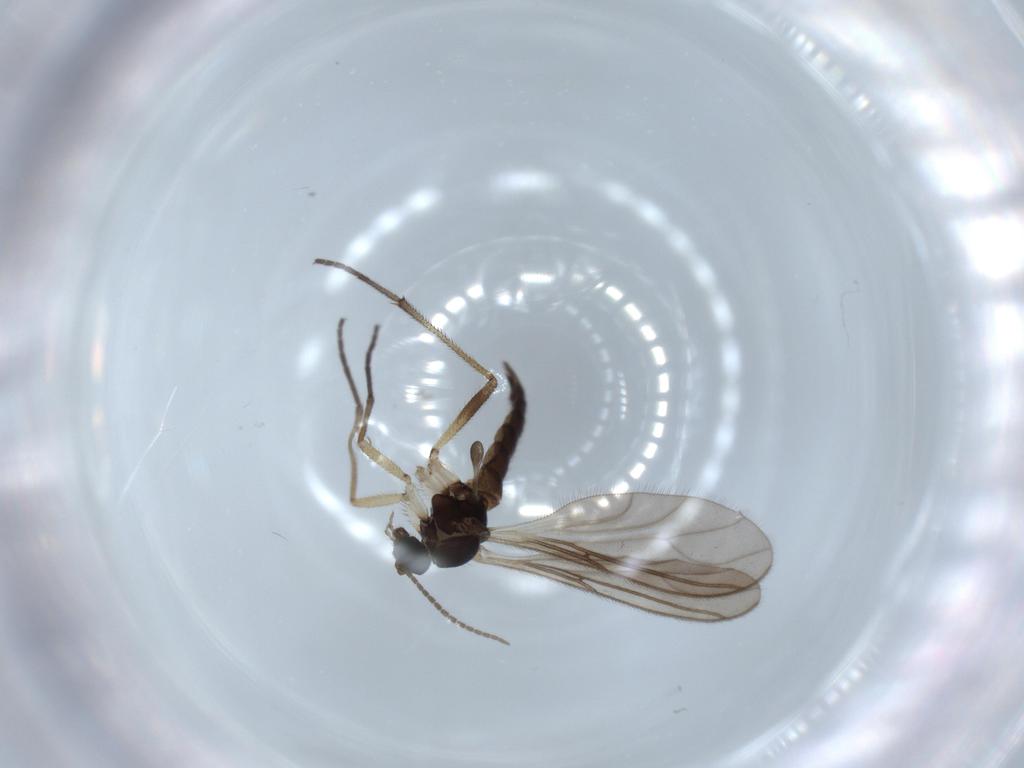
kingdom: Animalia
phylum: Arthropoda
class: Insecta
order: Diptera
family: Sciaridae
